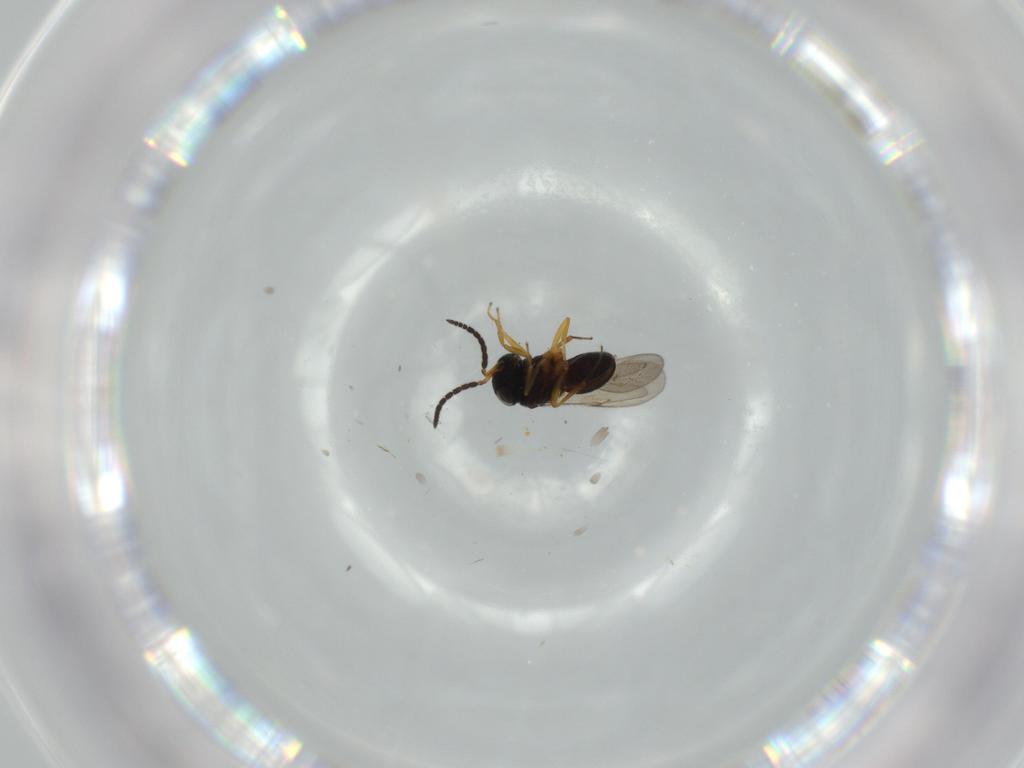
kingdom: Animalia
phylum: Arthropoda
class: Insecta
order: Hymenoptera
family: Scelionidae
